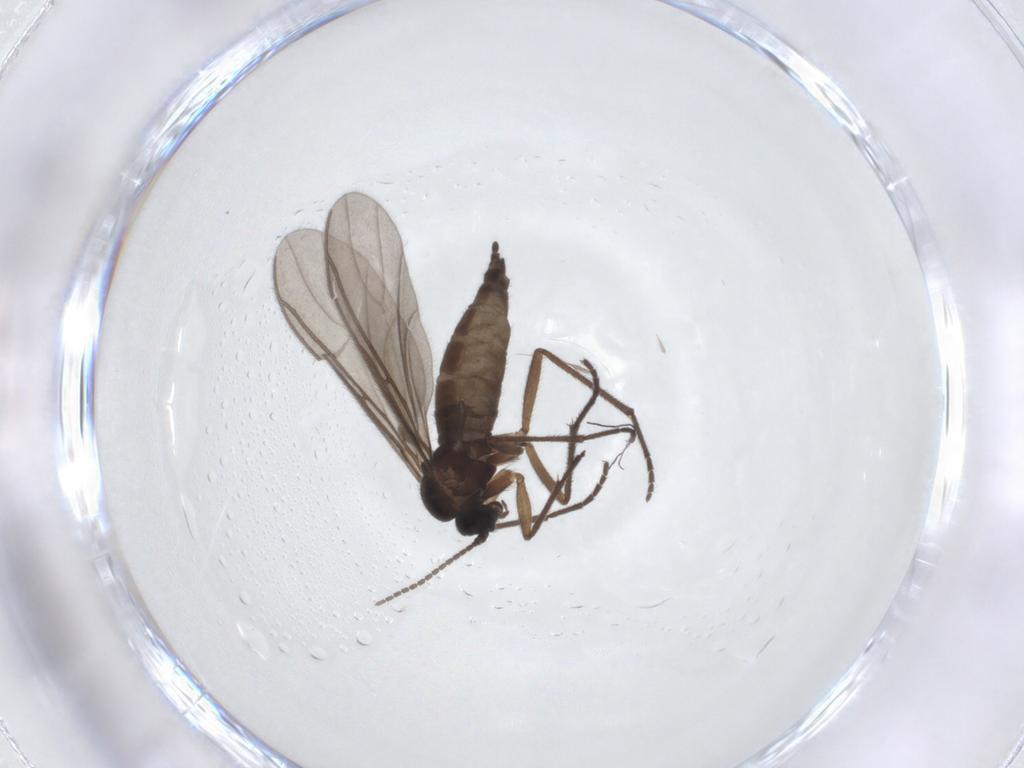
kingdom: Animalia
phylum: Arthropoda
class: Insecta
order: Diptera
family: Sciaridae
